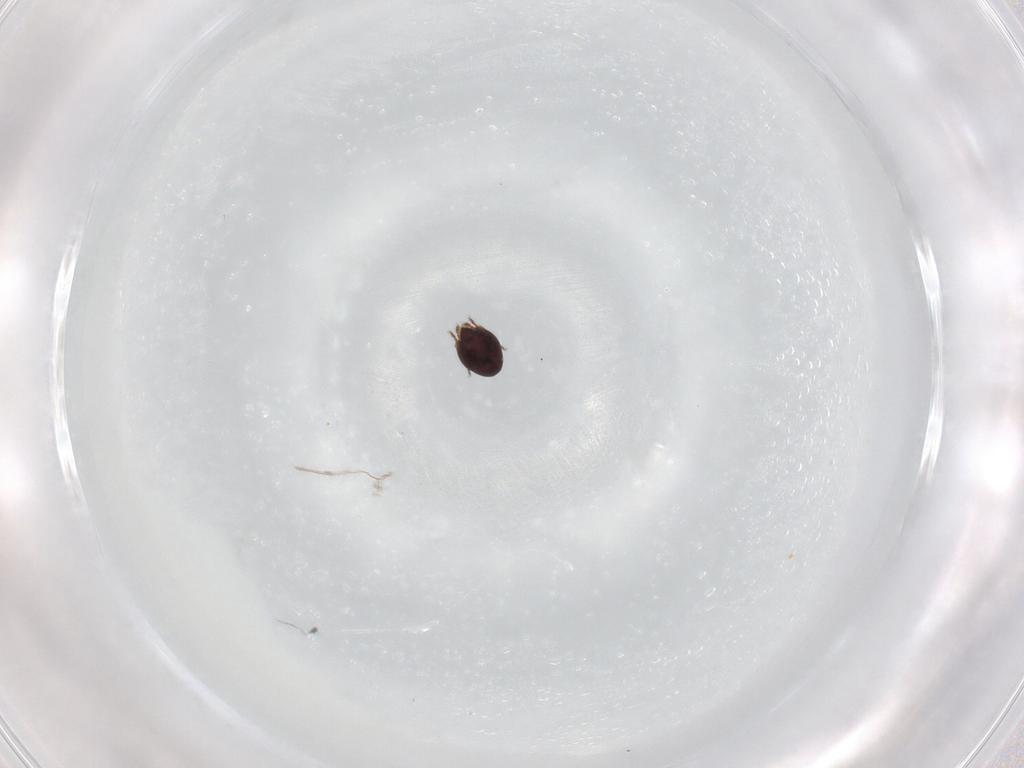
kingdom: Animalia
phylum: Arthropoda
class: Arachnida
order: Sarcoptiformes
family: Achipteriidae
